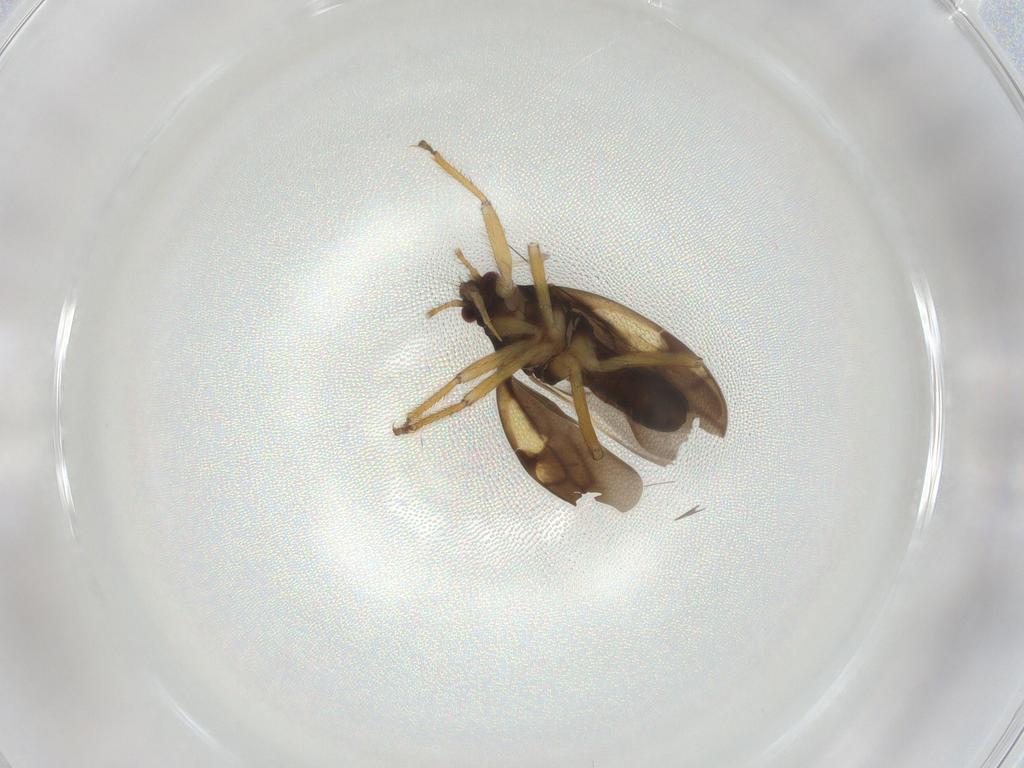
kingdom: Animalia
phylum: Arthropoda
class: Insecta
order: Hemiptera
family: Cicadellidae
